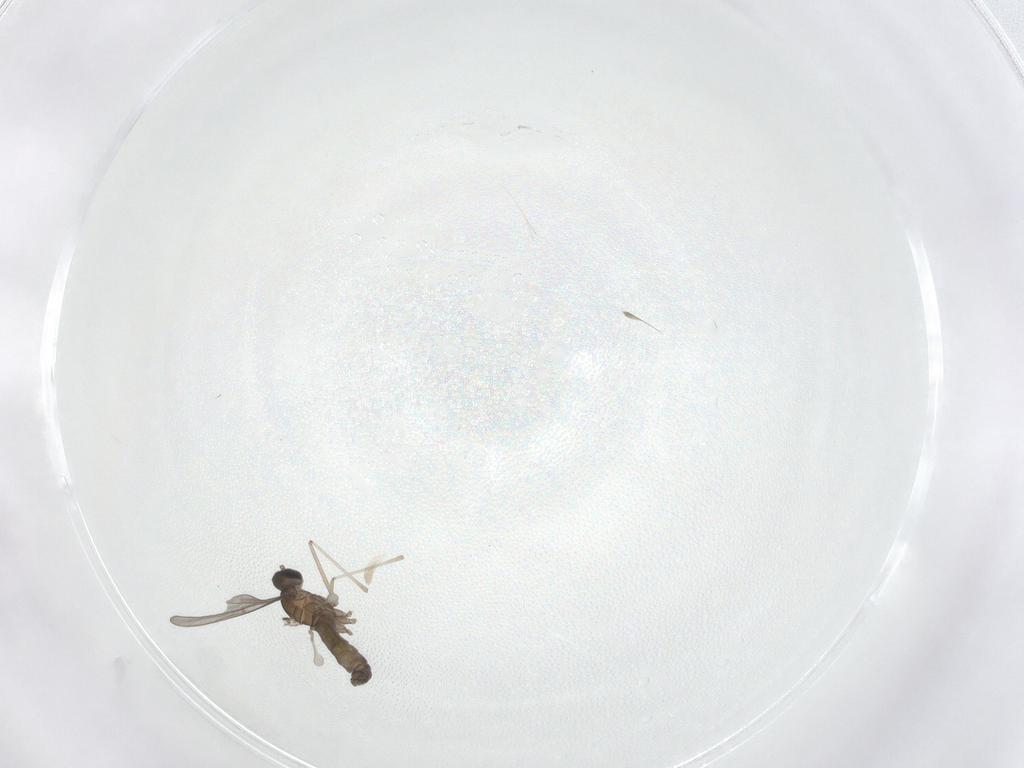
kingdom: Animalia
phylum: Arthropoda
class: Insecta
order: Diptera
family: Cecidomyiidae
